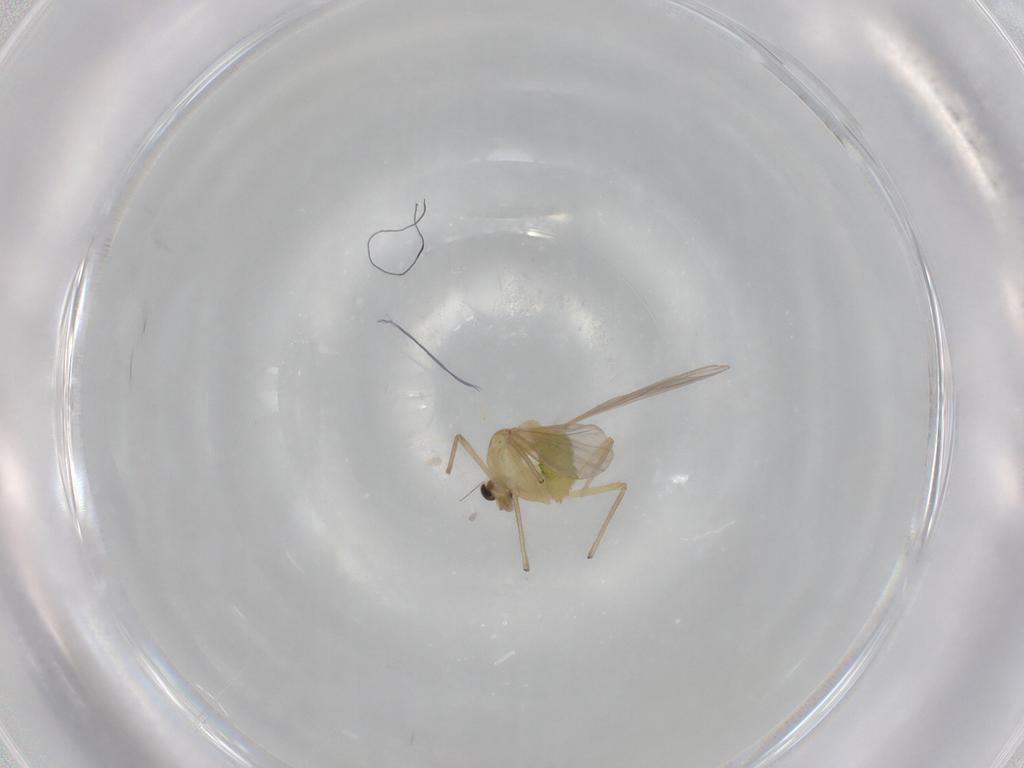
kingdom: Animalia
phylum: Arthropoda
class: Insecta
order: Diptera
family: Chironomidae
